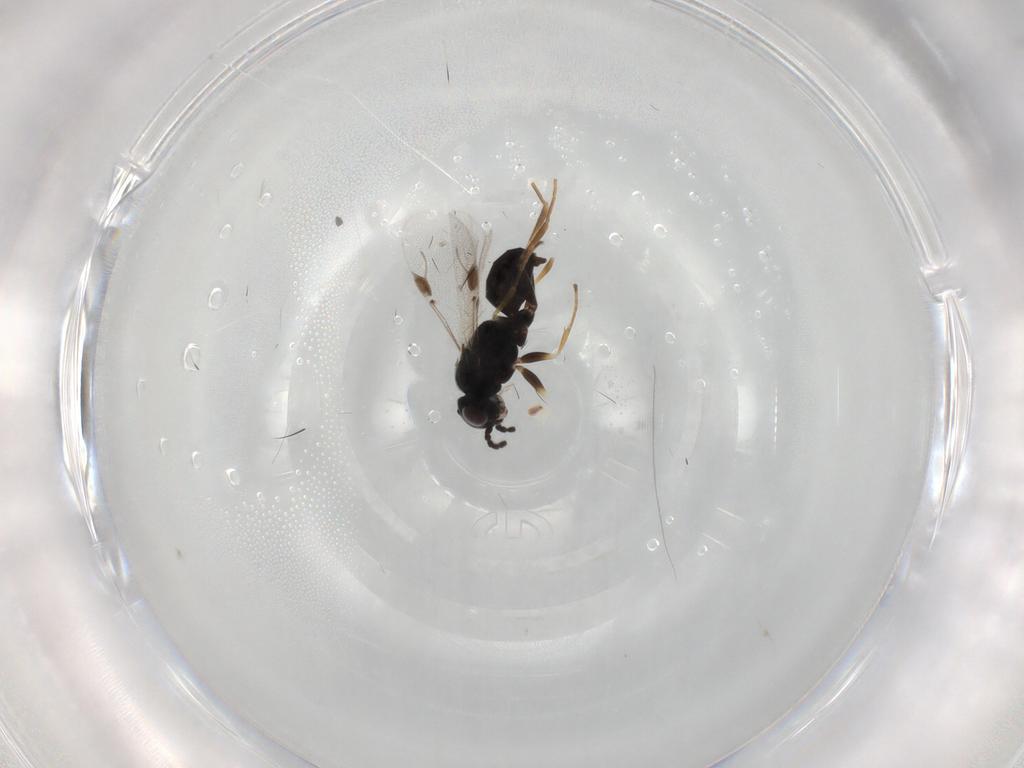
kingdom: Animalia
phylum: Arthropoda
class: Insecta
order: Hymenoptera
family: Dryinidae
